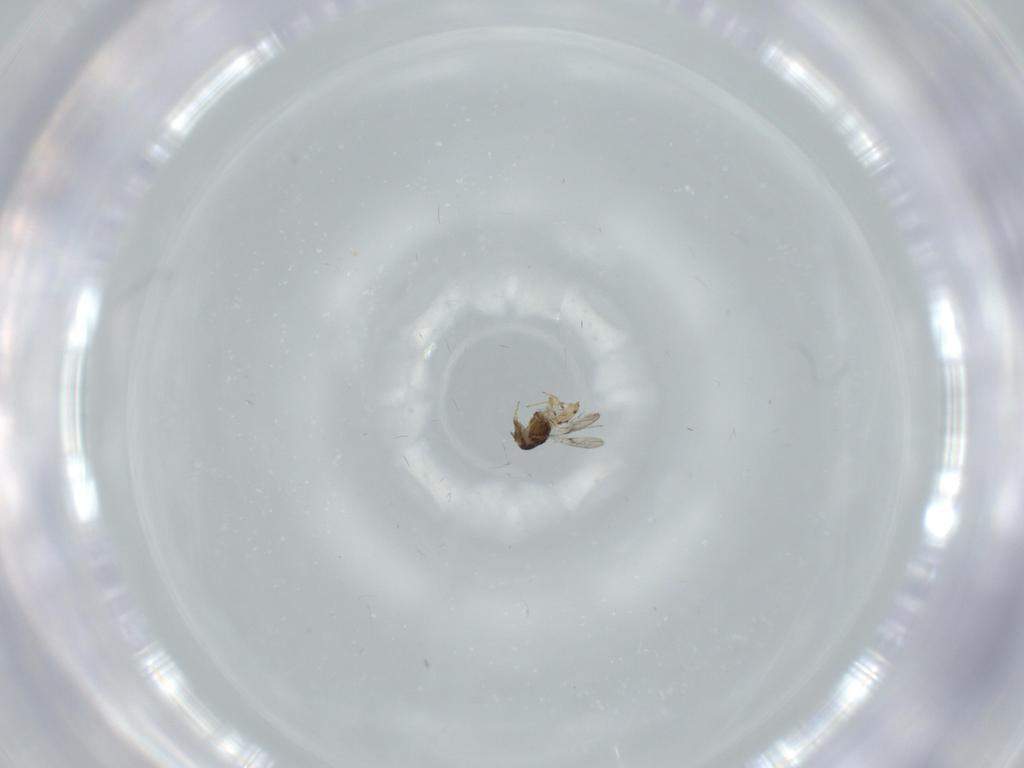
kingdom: Animalia
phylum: Arthropoda
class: Insecta
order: Hymenoptera
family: Scelionidae
